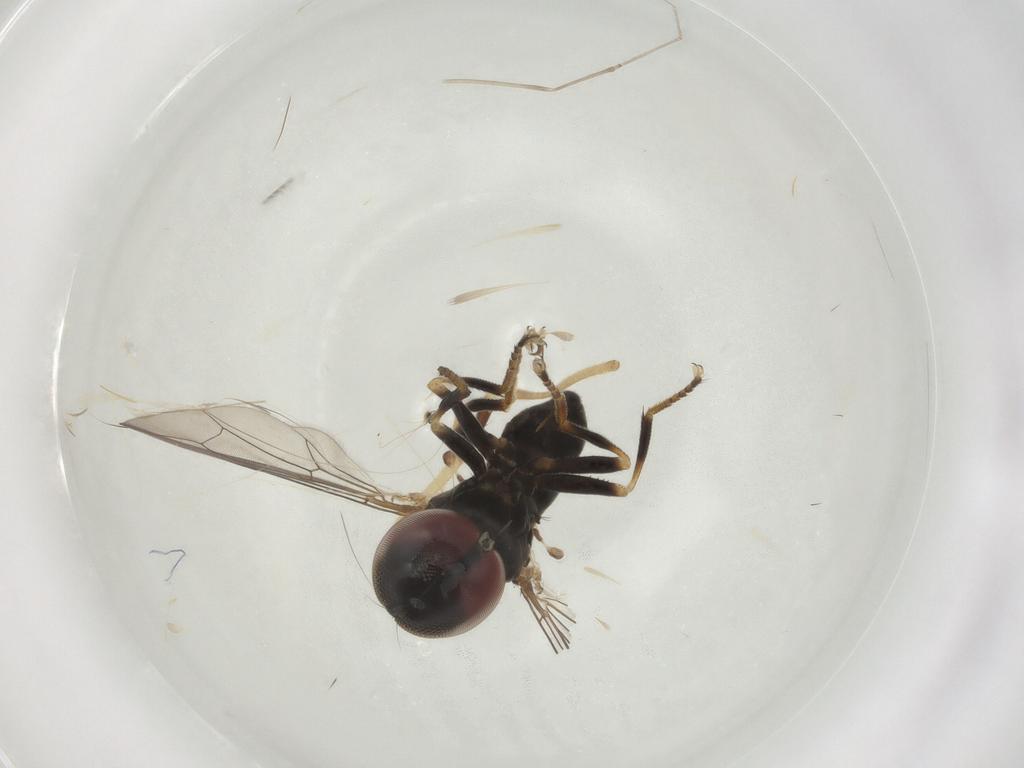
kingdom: Animalia
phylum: Arthropoda
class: Insecta
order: Diptera
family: Pipunculidae
